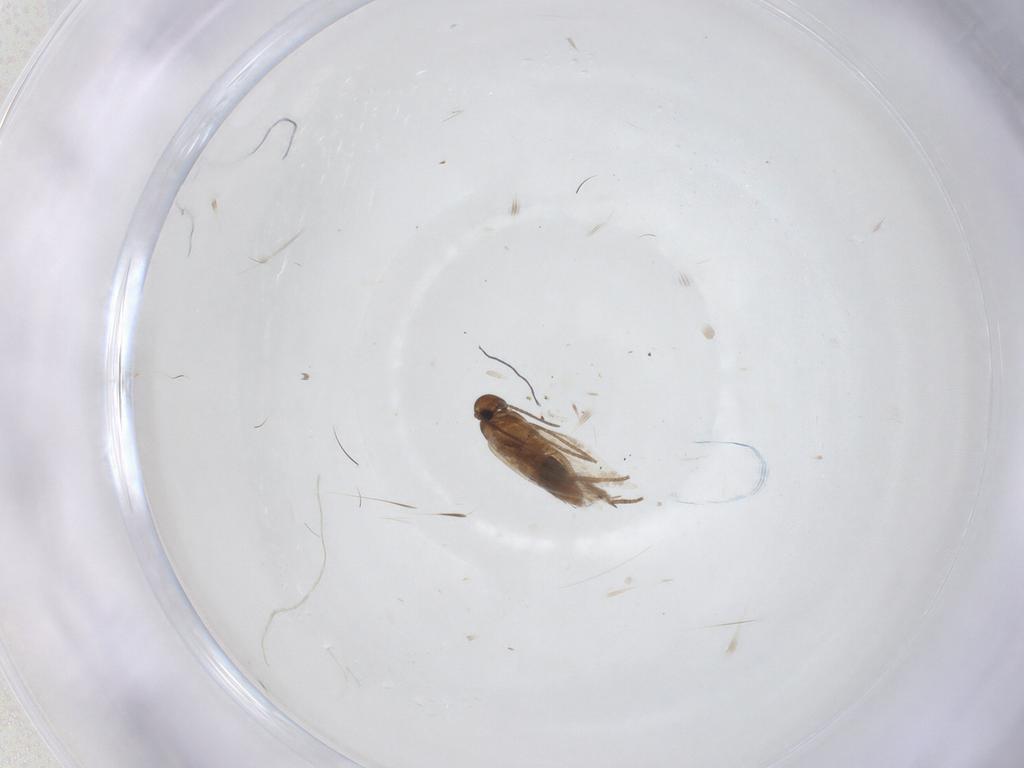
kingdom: Animalia
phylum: Arthropoda
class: Insecta
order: Lepidoptera
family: Heliozelidae
